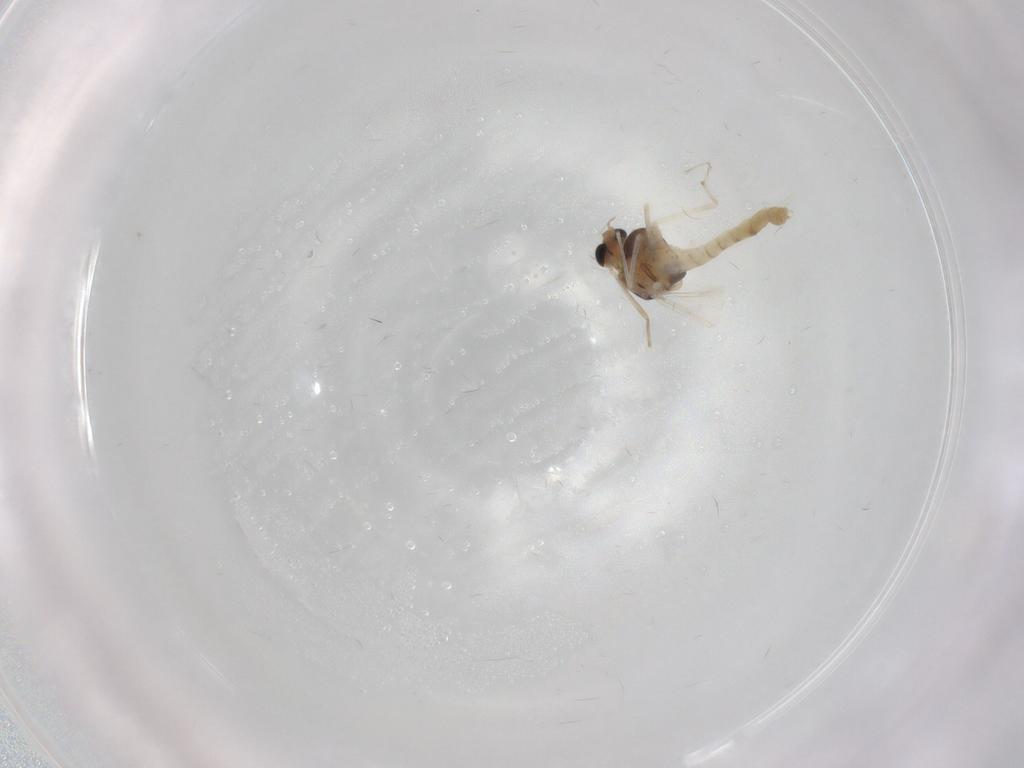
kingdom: Animalia
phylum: Arthropoda
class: Insecta
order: Diptera
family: Chironomidae
